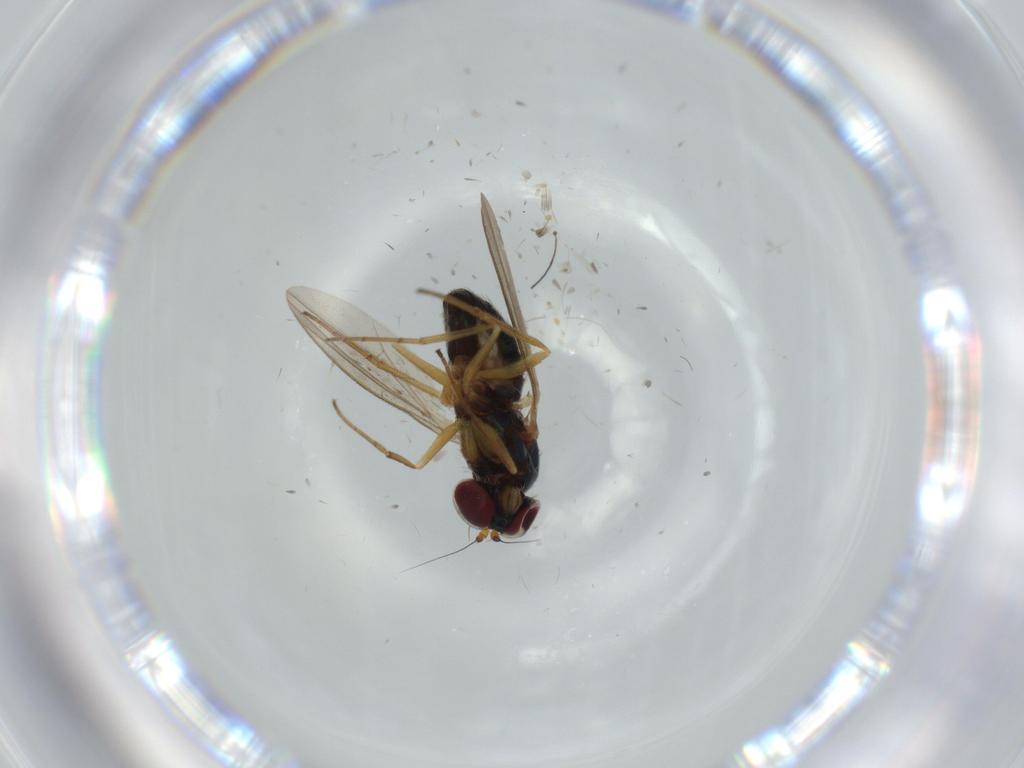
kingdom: Animalia
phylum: Arthropoda
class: Insecta
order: Diptera
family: Dolichopodidae
